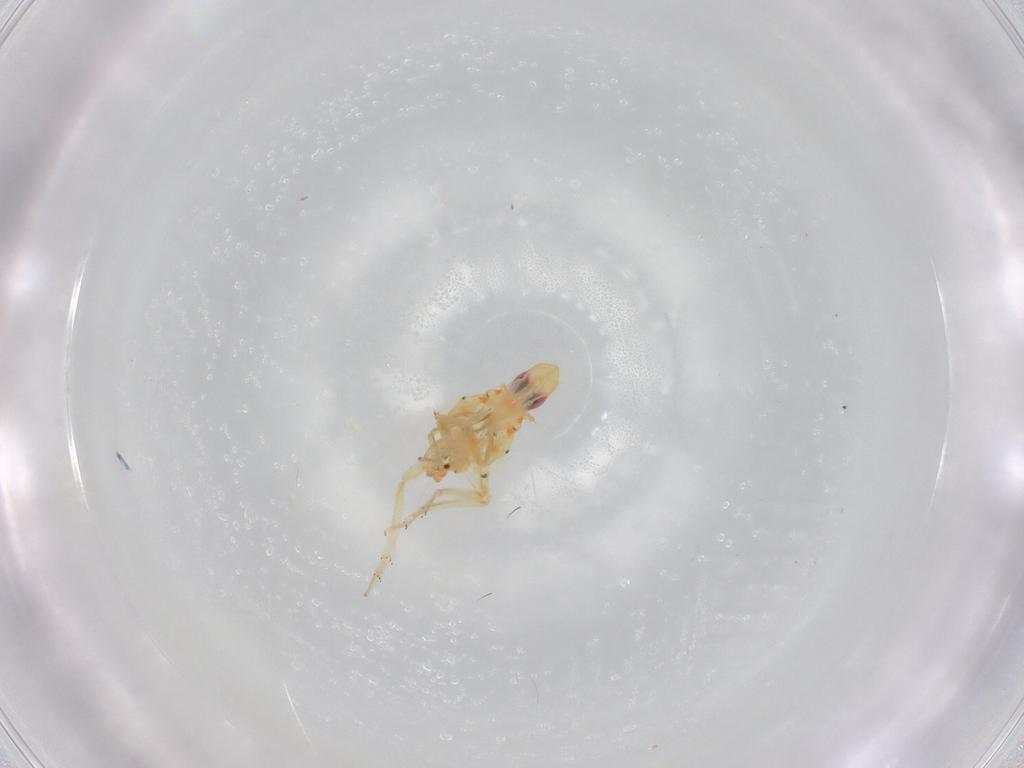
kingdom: Animalia
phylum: Arthropoda
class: Insecta
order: Hemiptera
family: Tropiduchidae
